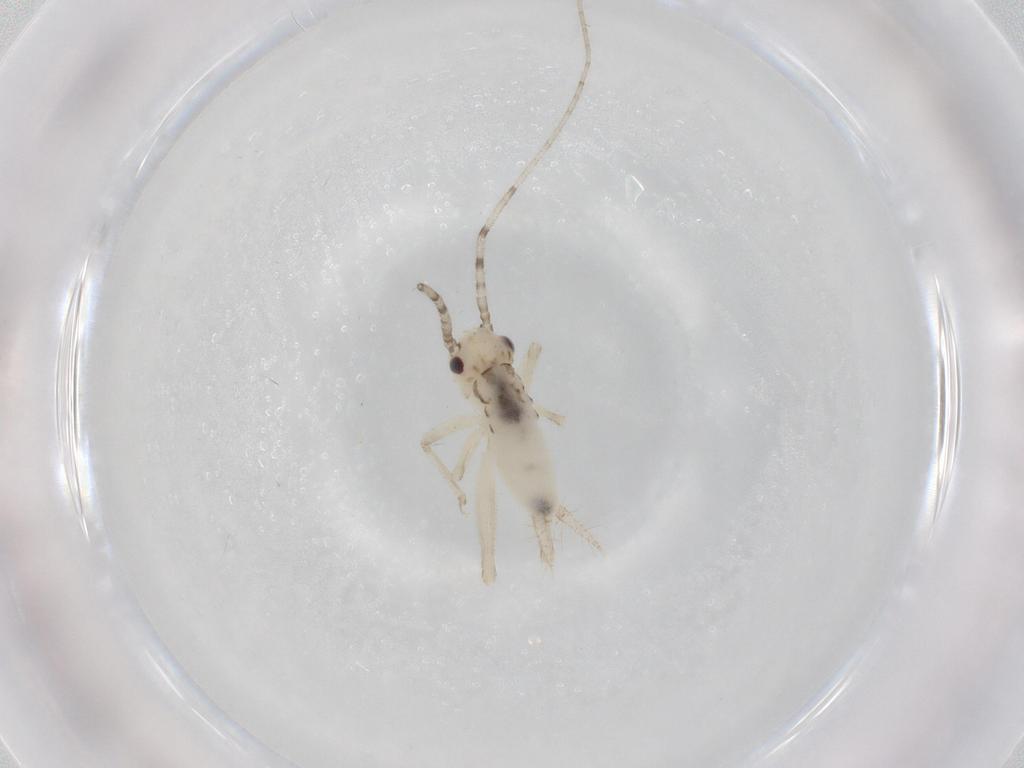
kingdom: Animalia
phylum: Arthropoda
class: Insecta
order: Orthoptera
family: Trigonidiidae
